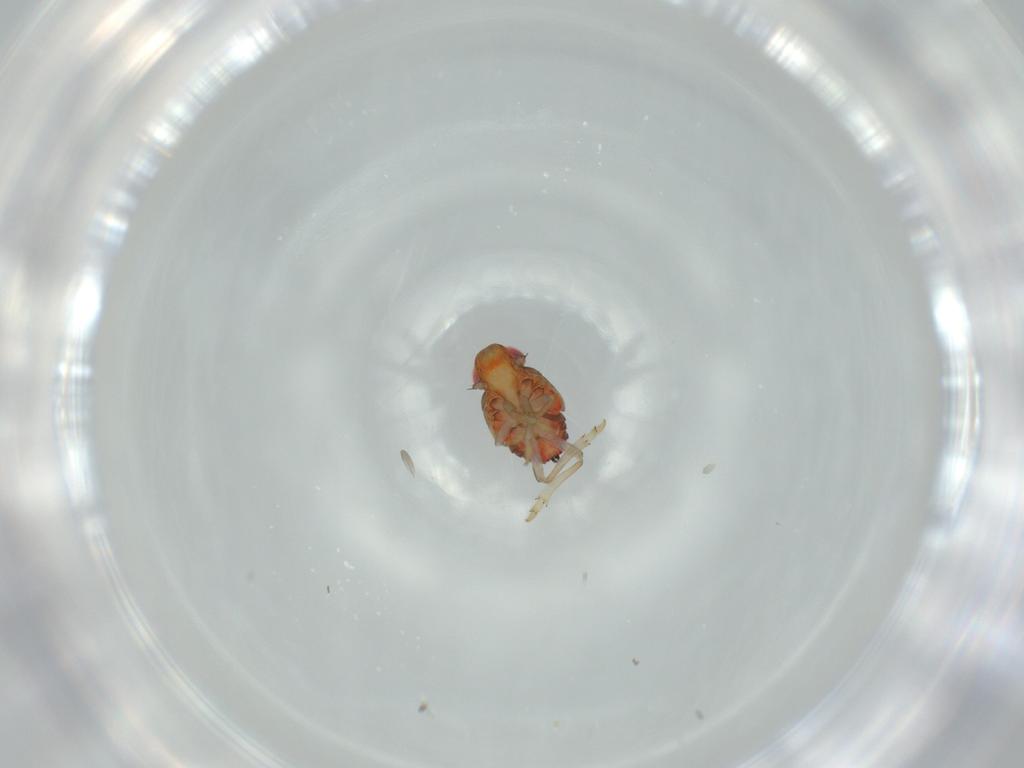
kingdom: Animalia
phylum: Arthropoda
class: Insecta
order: Hemiptera
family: Issidae
